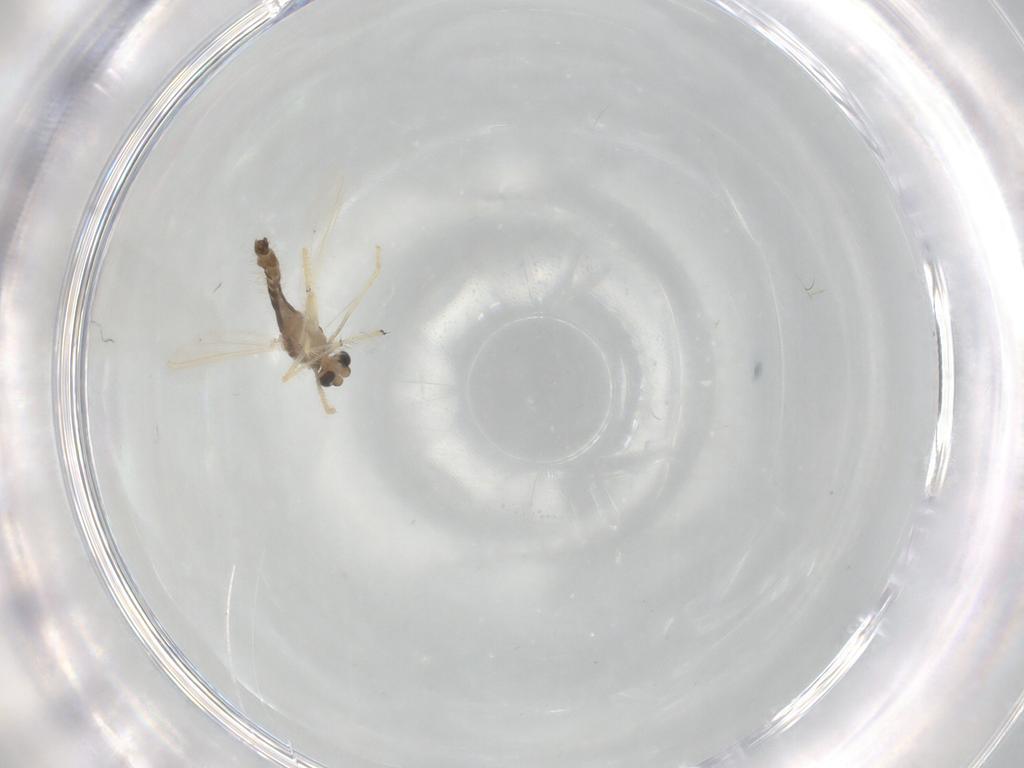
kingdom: Animalia
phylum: Arthropoda
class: Insecta
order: Diptera
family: Chironomidae
